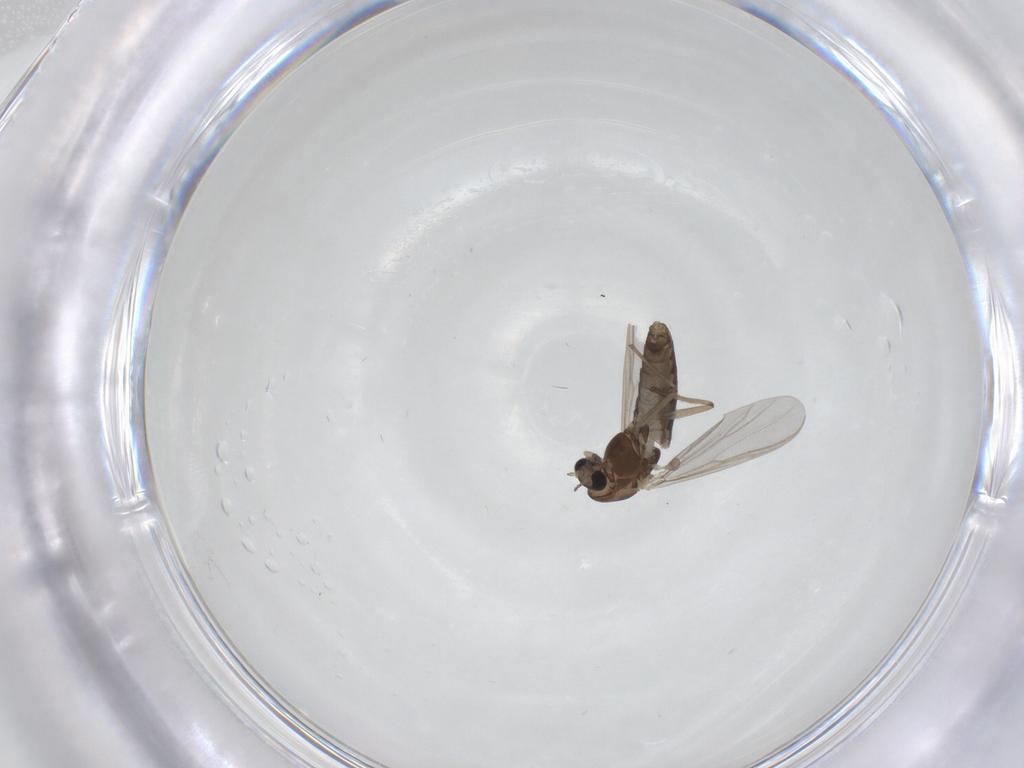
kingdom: Animalia
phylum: Arthropoda
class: Insecta
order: Diptera
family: Chironomidae
